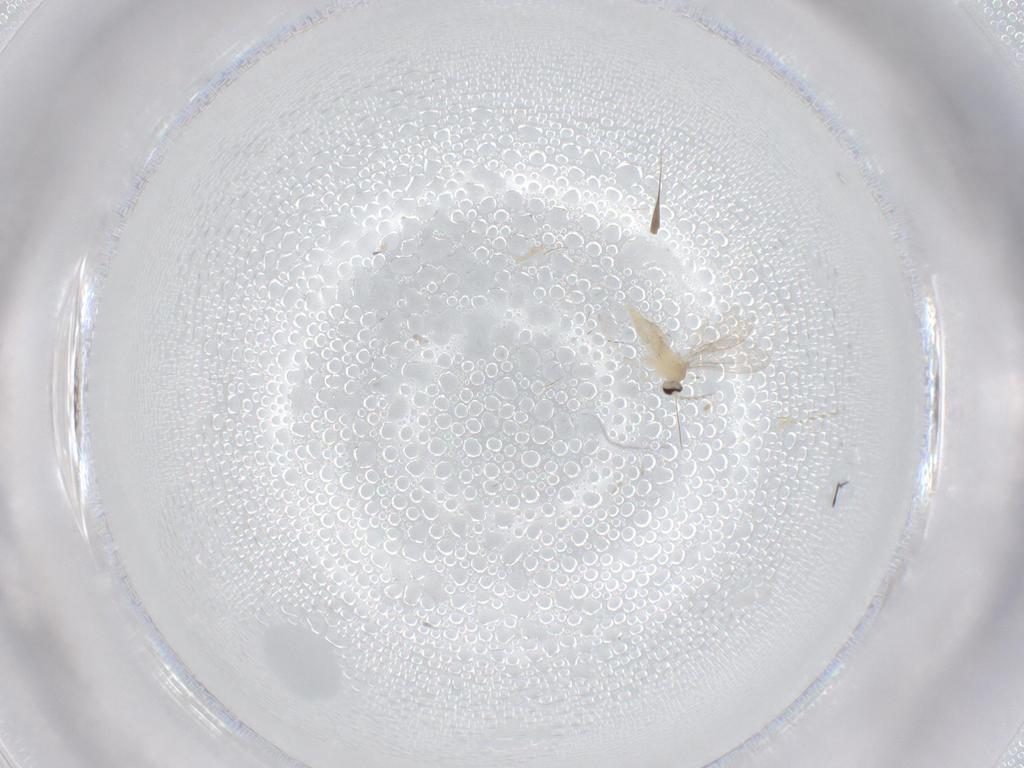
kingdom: Animalia
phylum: Arthropoda
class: Insecta
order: Diptera
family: Cecidomyiidae
